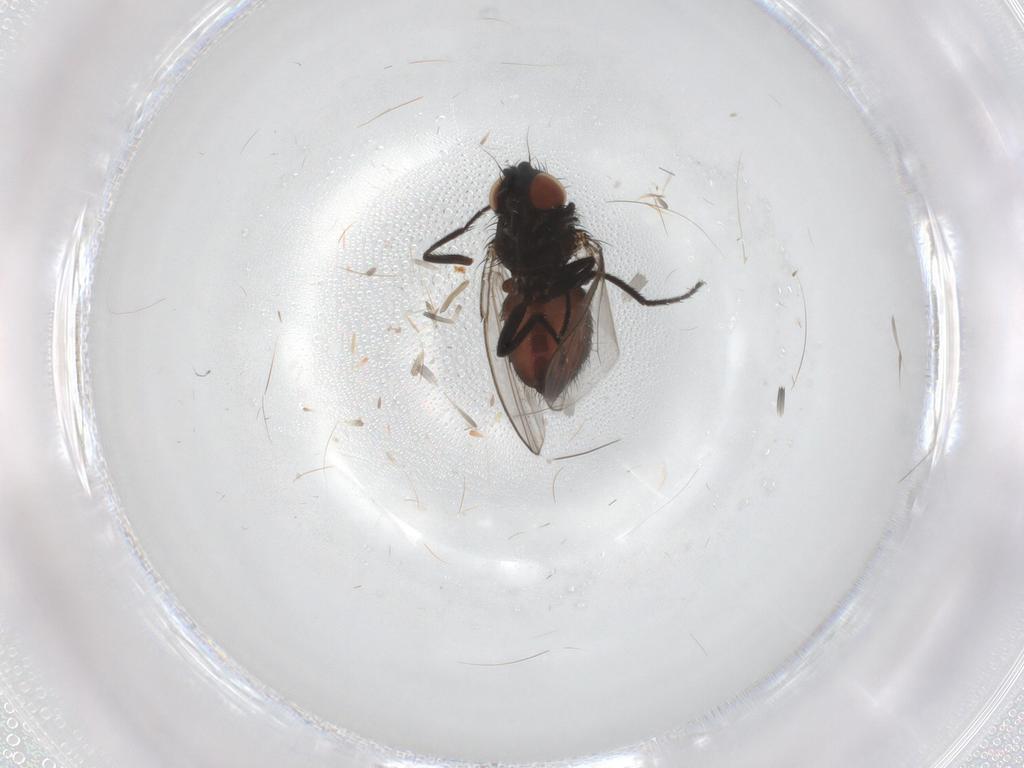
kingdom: Animalia
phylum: Arthropoda
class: Insecta
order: Diptera
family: Milichiidae
